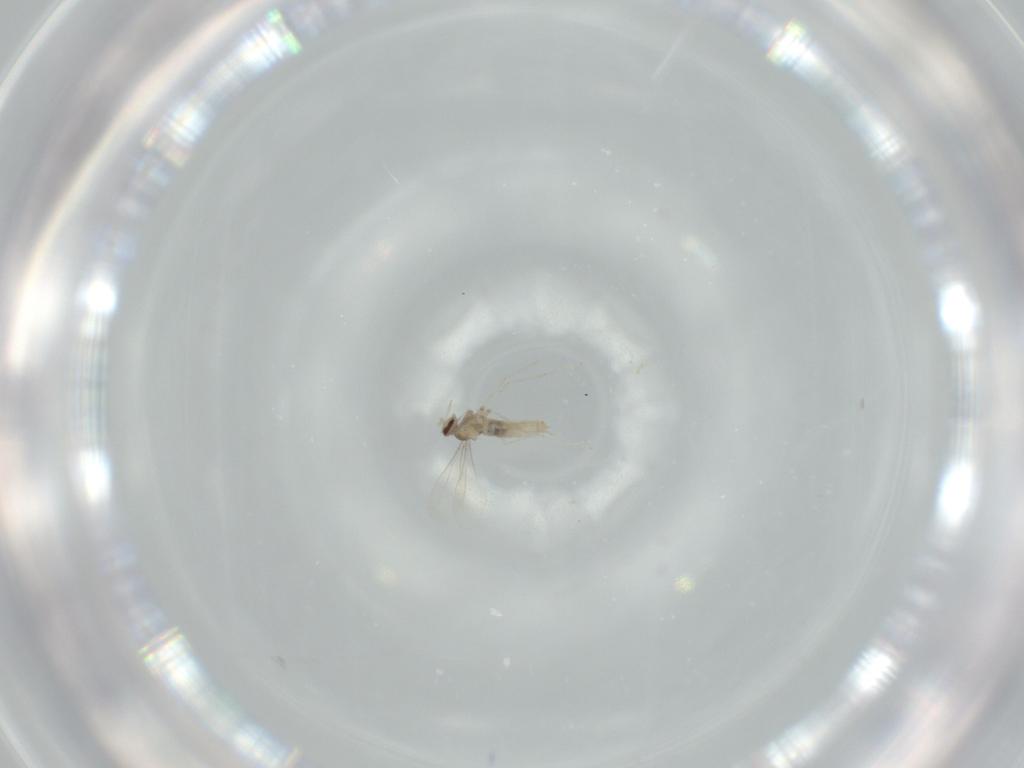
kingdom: Animalia
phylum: Arthropoda
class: Insecta
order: Diptera
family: Cecidomyiidae
